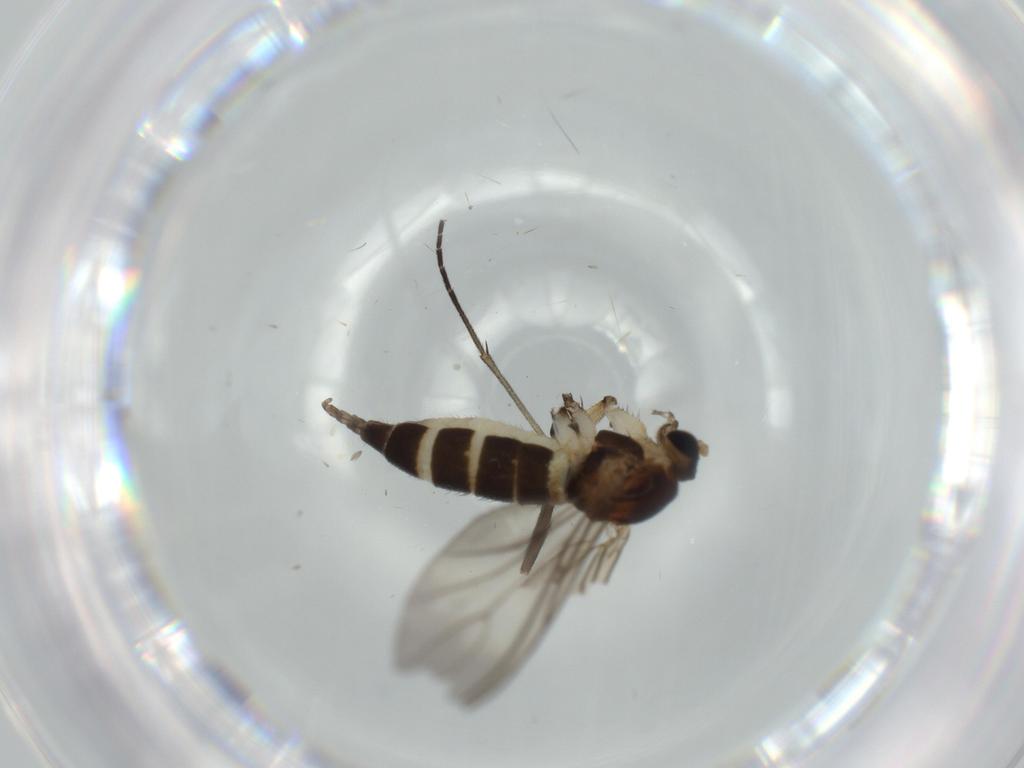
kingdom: Animalia
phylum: Arthropoda
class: Insecta
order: Diptera
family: Sciaridae
